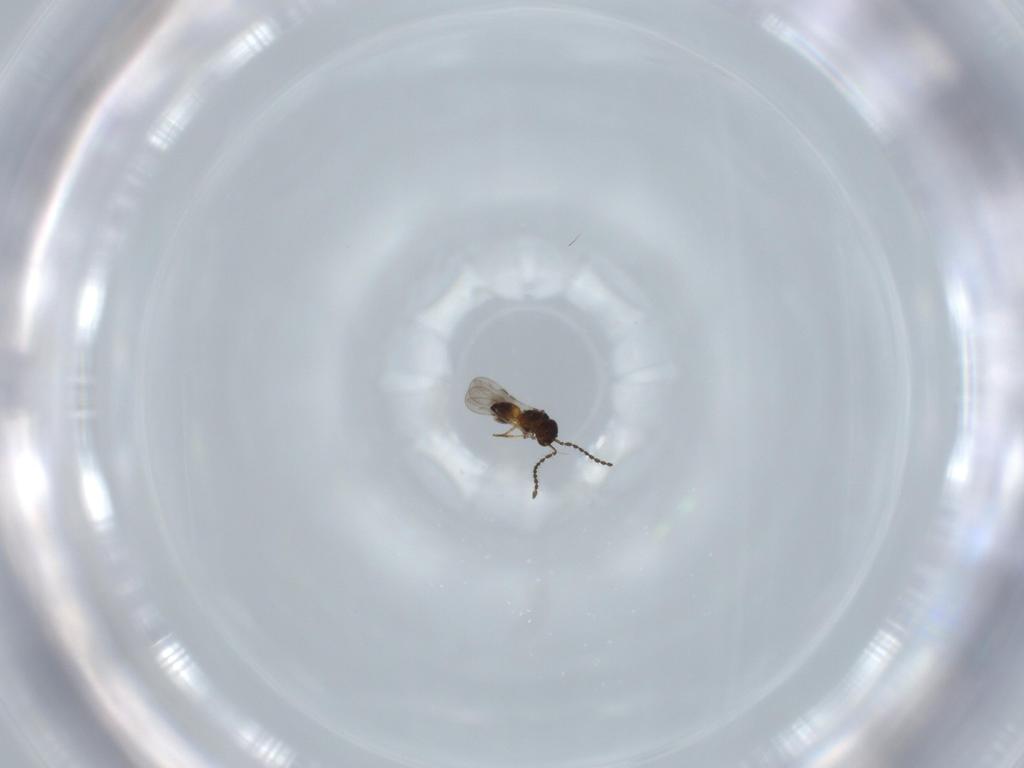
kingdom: Animalia
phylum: Arthropoda
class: Insecta
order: Hymenoptera
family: Ceraphronidae
